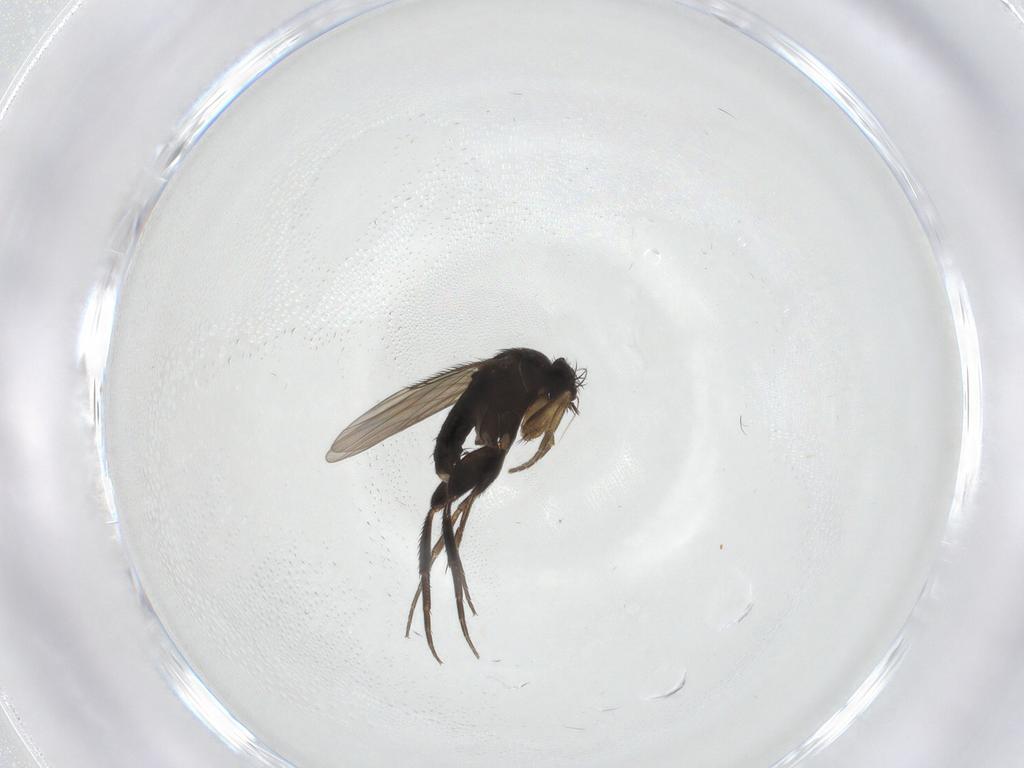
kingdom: Animalia
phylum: Arthropoda
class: Insecta
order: Diptera
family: Phoridae
